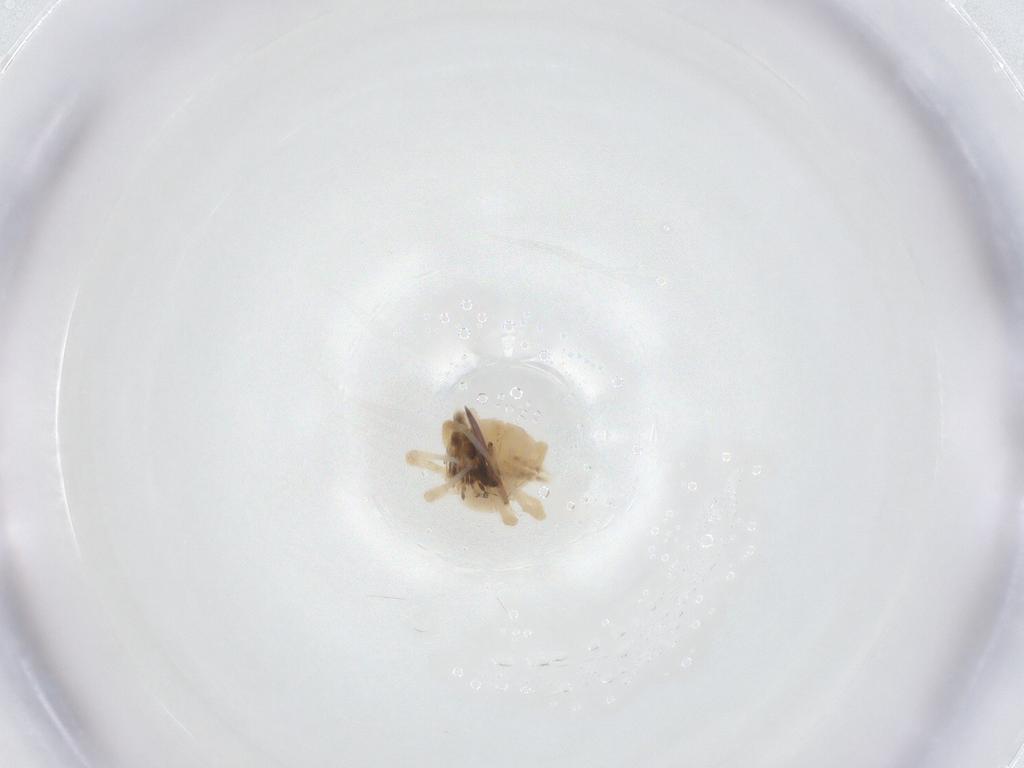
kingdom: Animalia
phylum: Arthropoda
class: Arachnida
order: Trombidiformes
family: Anystidae
